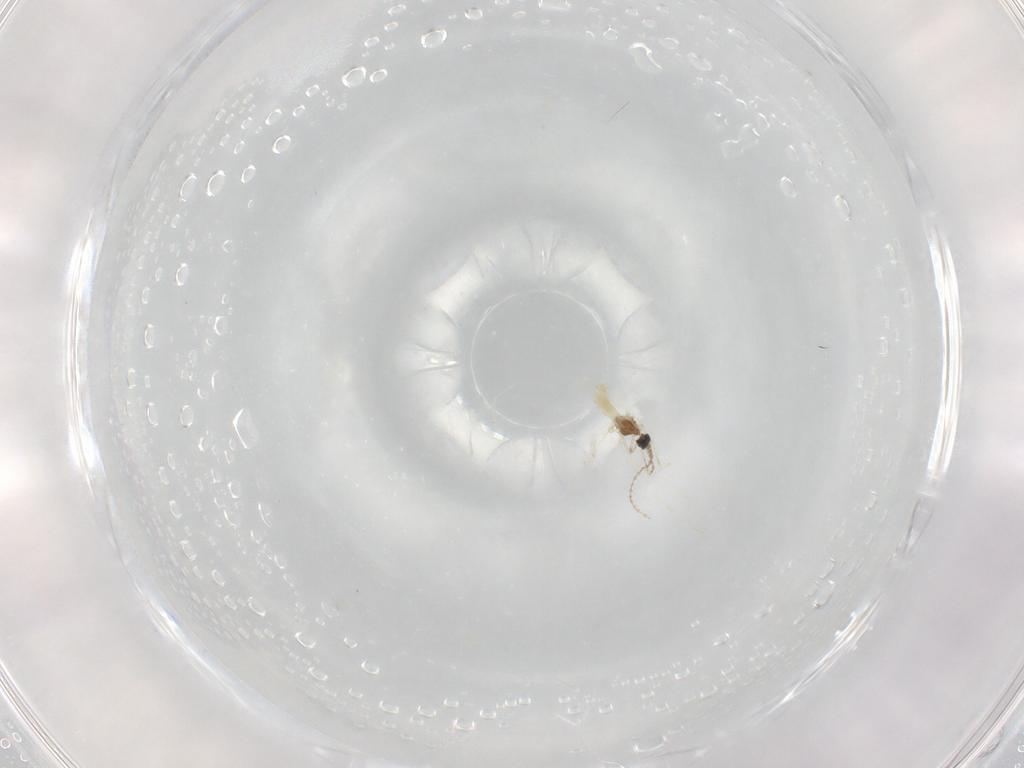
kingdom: Animalia
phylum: Arthropoda
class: Insecta
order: Diptera
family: Cecidomyiidae
